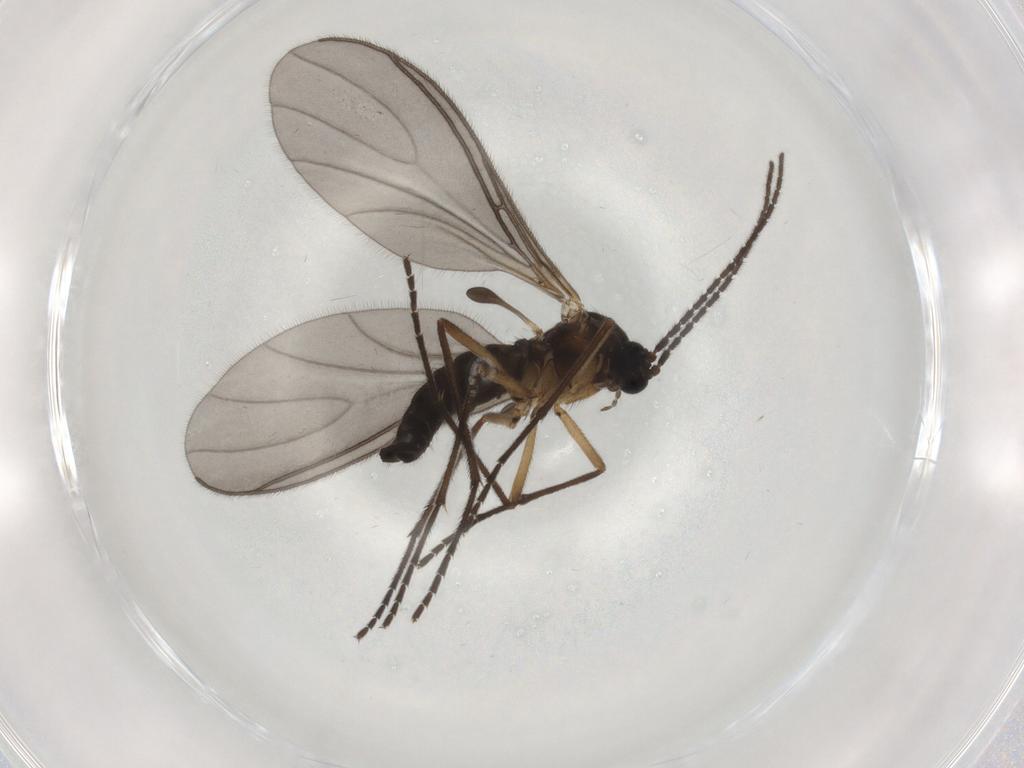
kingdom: Animalia
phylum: Arthropoda
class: Insecta
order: Diptera
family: Sciaridae
